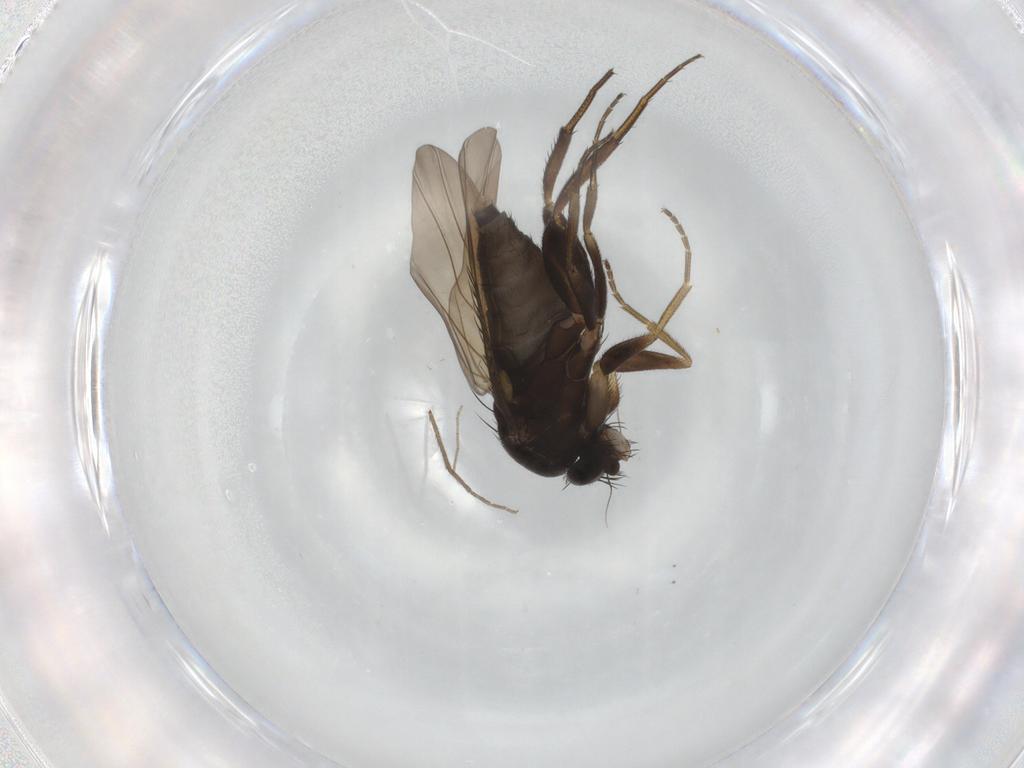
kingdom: Animalia
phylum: Arthropoda
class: Insecta
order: Diptera
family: Phoridae
